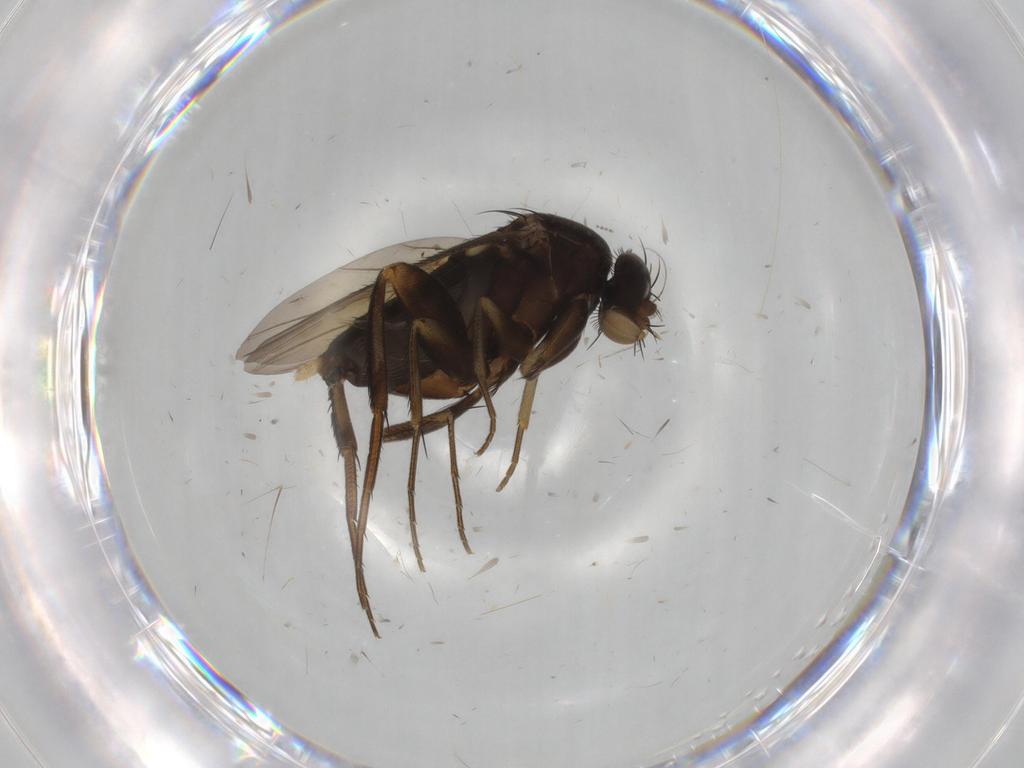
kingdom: Animalia
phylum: Arthropoda
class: Insecta
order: Diptera
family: Phoridae
